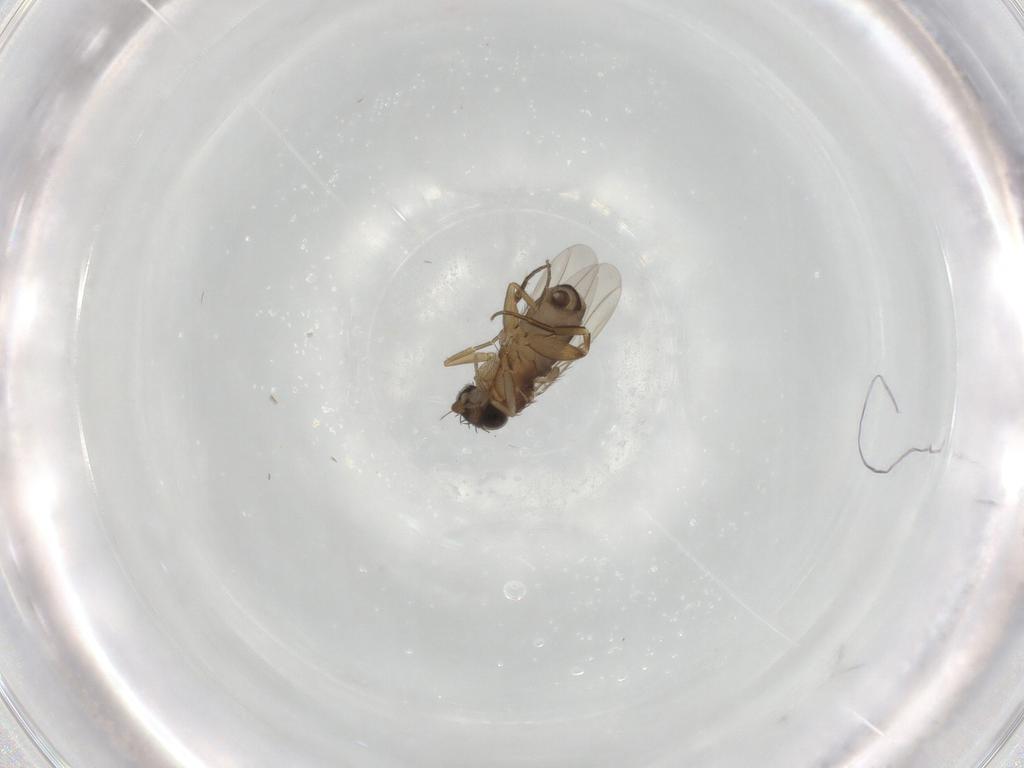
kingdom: Animalia
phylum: Arthropoda
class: Insecta
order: Diptera
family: Phoridae
